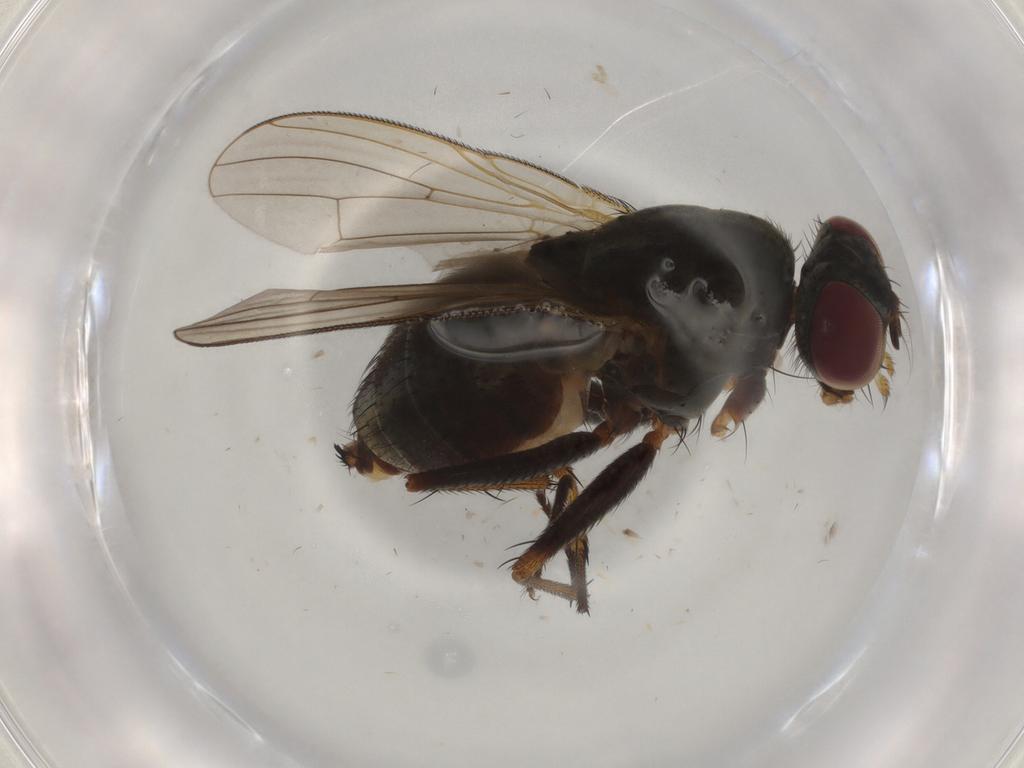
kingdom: Animalia
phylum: Arthropoda
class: Insecta
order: Diptera
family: Muscidae
